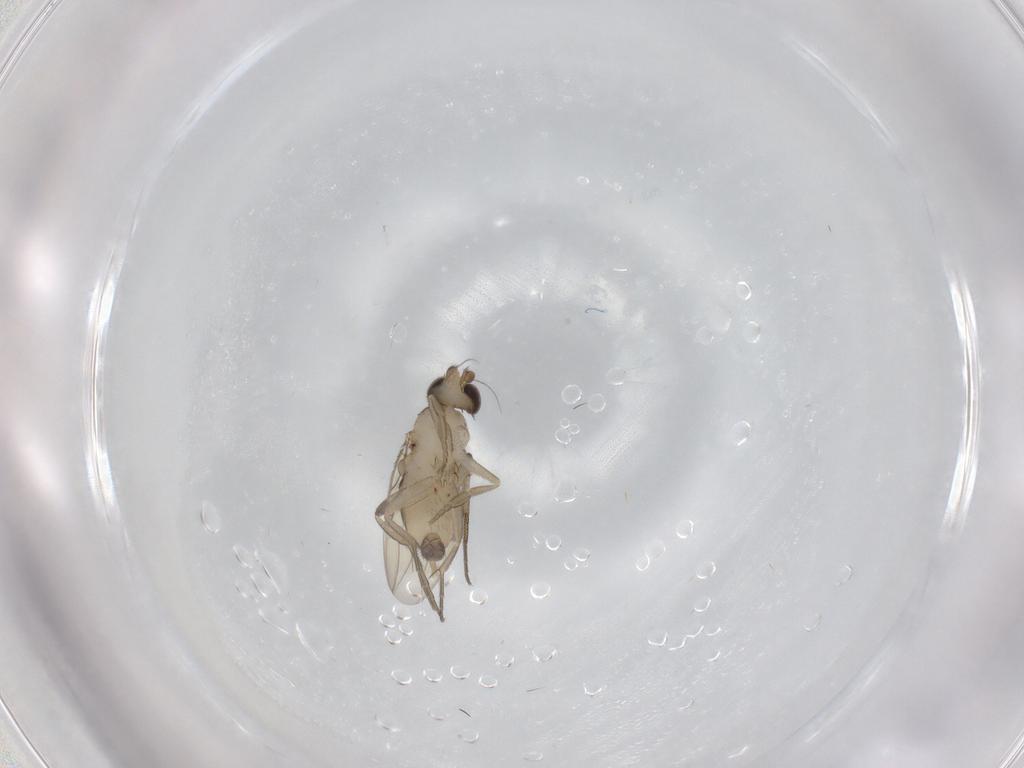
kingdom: Animalia
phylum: Arthropoda
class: Insecta
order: Diptera
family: Phoridae
